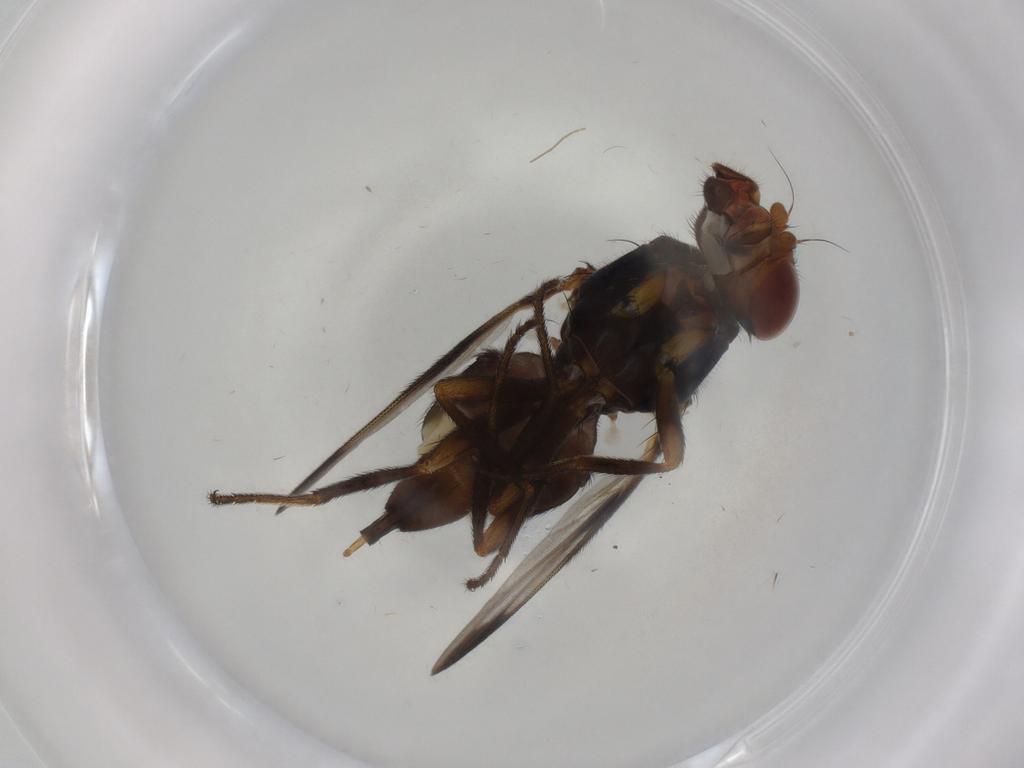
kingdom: Animalia
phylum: Arthropoda
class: Insecta
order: Diptera
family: Ulidiidae
